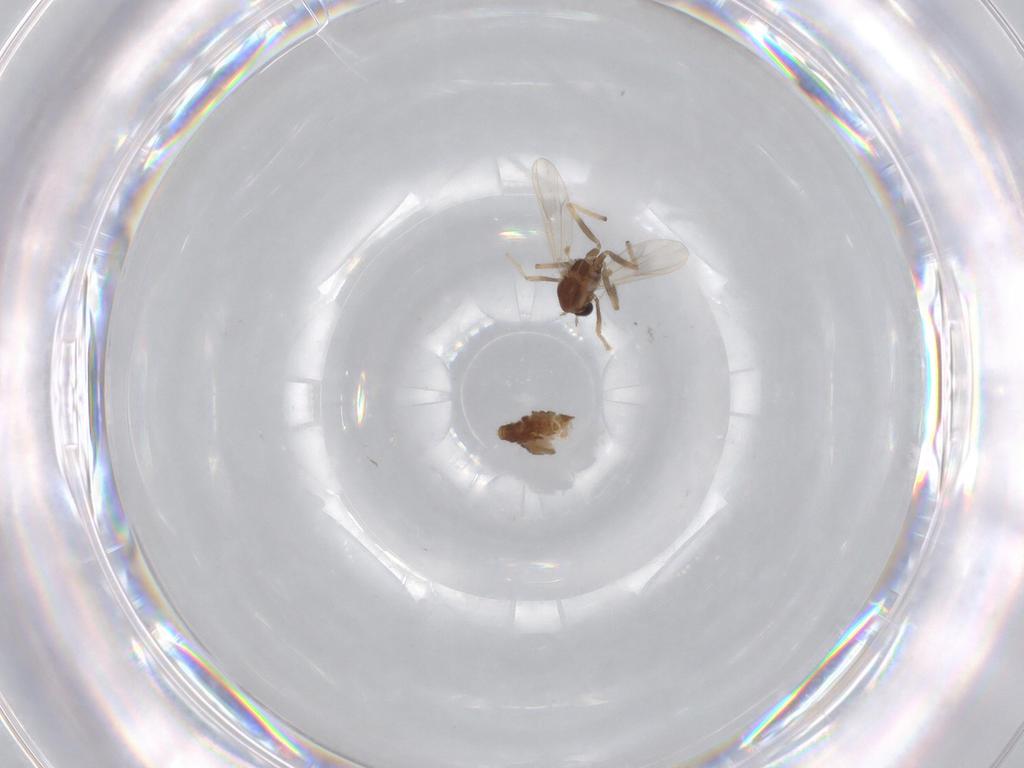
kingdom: Animalia
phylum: Arthropoda
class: Insecta
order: Diptera
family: Chironomidae
